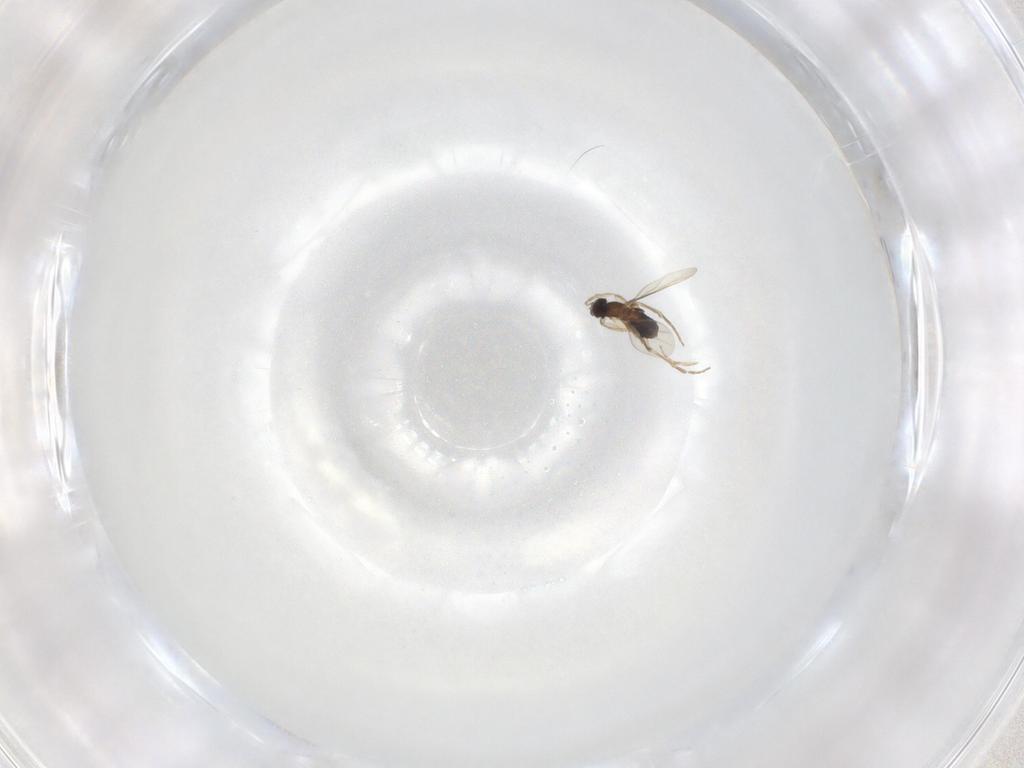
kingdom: Animalia
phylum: Arthropoda
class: Insecta
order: Diptera
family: Phoridae
